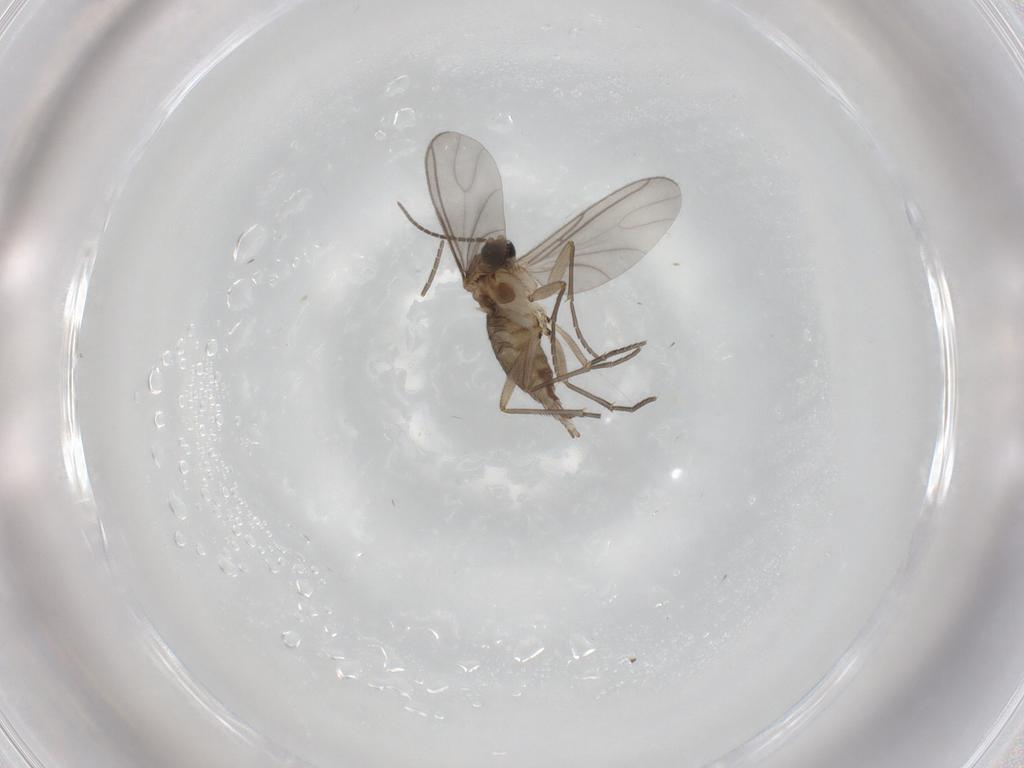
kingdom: Animalia
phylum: Arthropoda
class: Insecta
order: Diptera
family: Sciaridae
